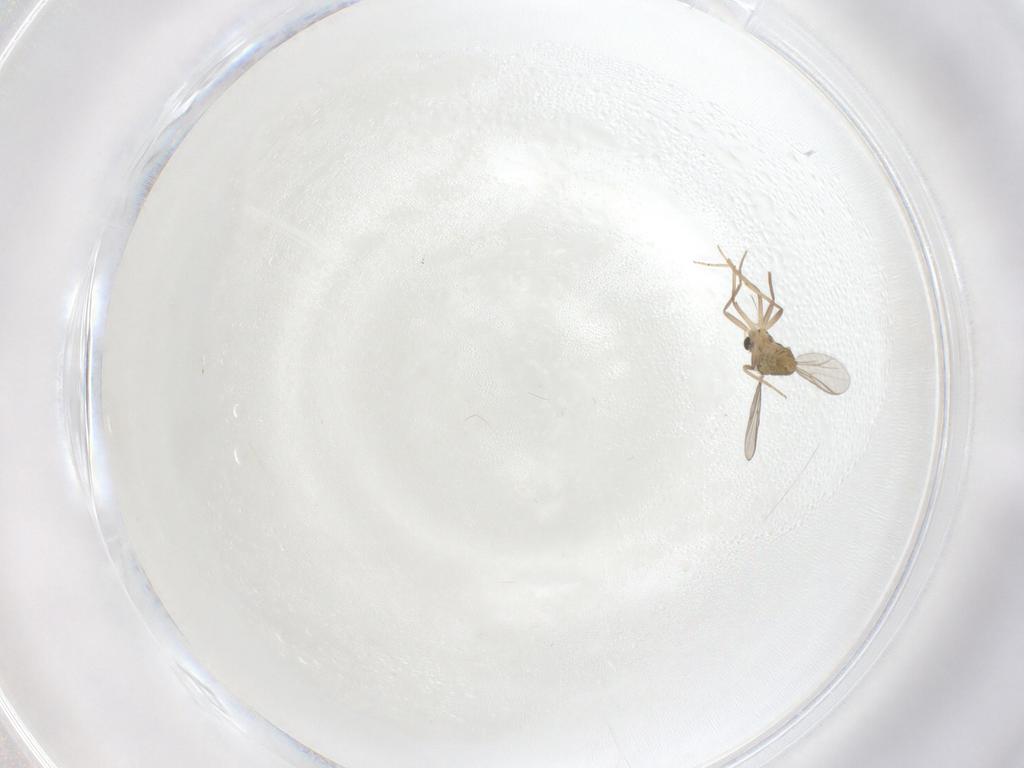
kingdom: Animalia
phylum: Arthropoda
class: Insecta
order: Diptera
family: Chironomidae
